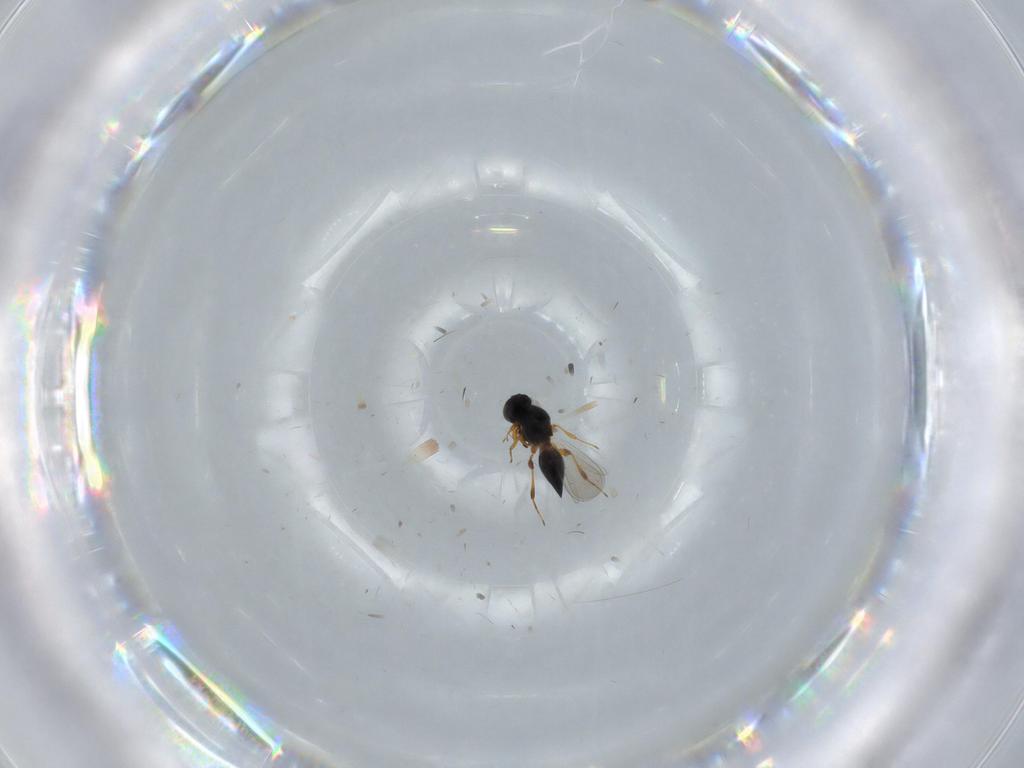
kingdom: Animalia
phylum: Arthropoda
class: Insecta
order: Hymenoptera
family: Platygastridae
